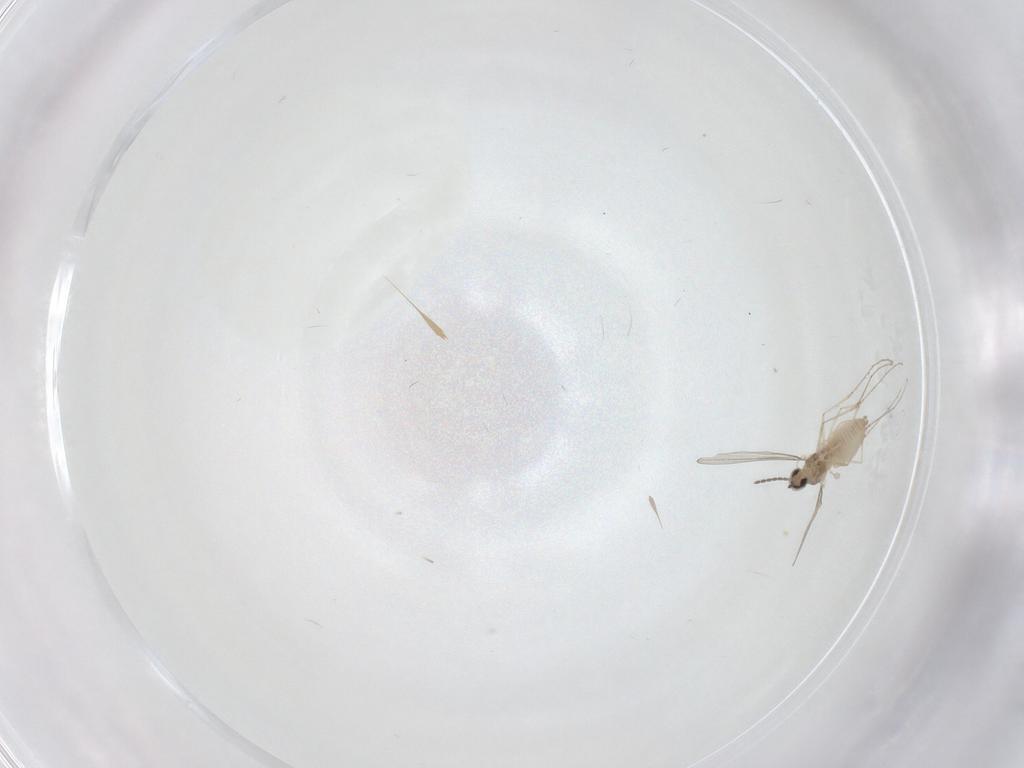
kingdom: Animalia
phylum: Arthropoda
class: Insecta
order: Diptera
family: Cecidomyiidae
